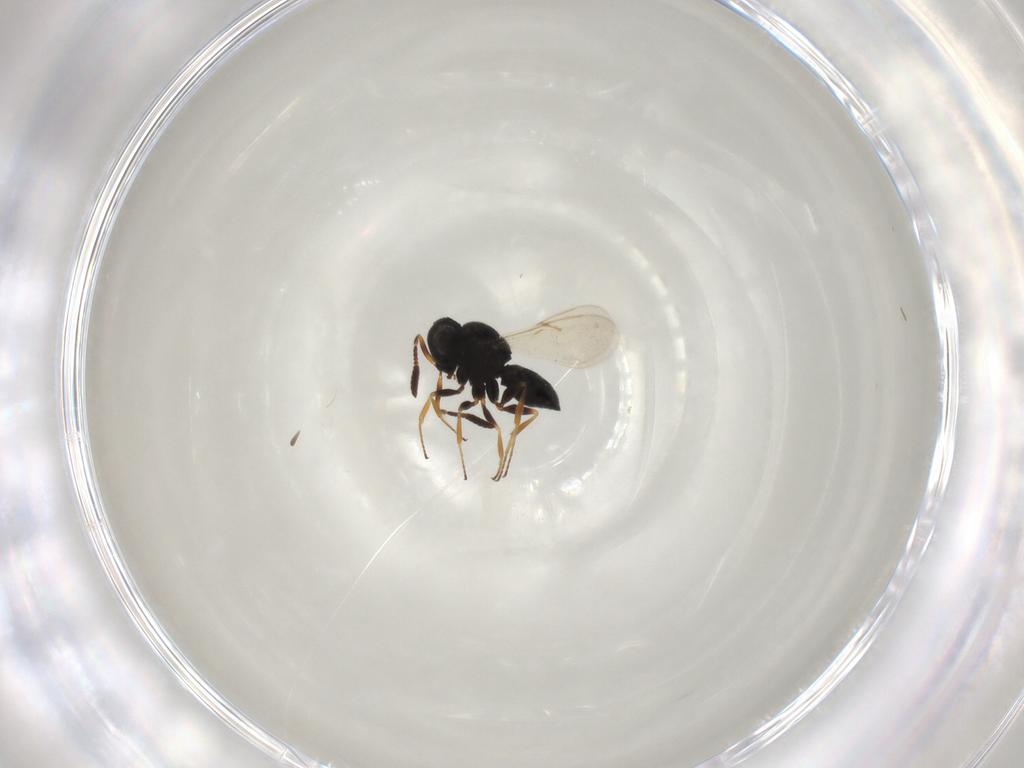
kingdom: Animalia
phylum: Arthropoda
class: Insecta
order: Hymenoptera
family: Scelionidae
